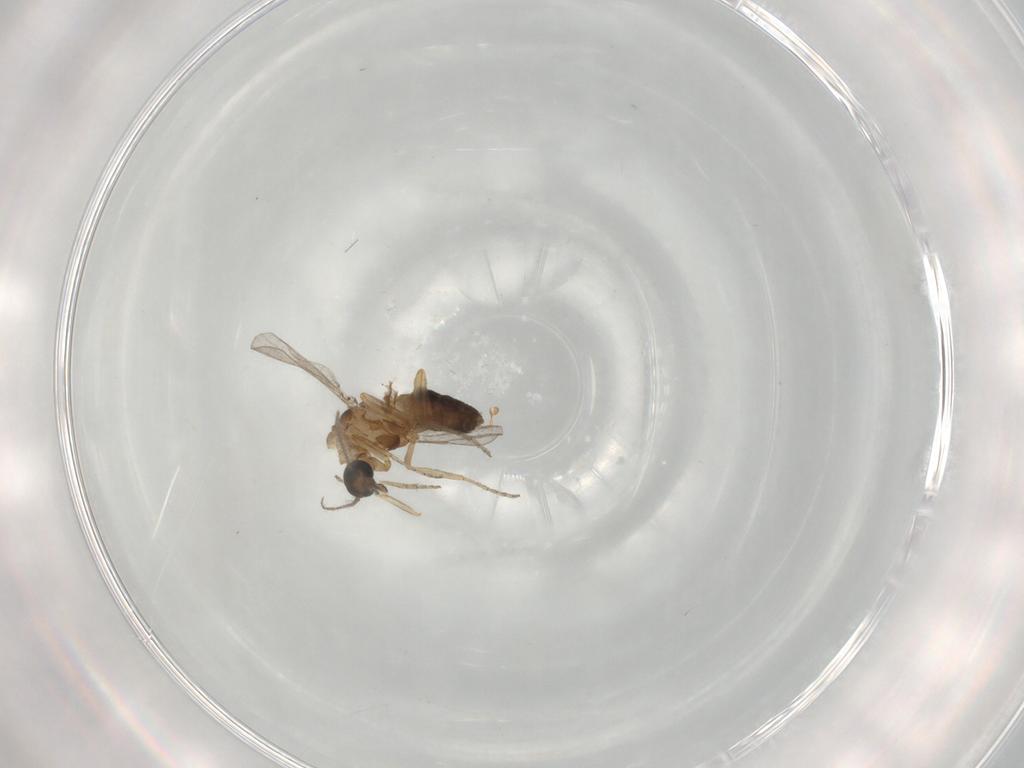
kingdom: Animalia
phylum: Arthropoda
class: Insecta
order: Diptera
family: Ceratopogonidae
